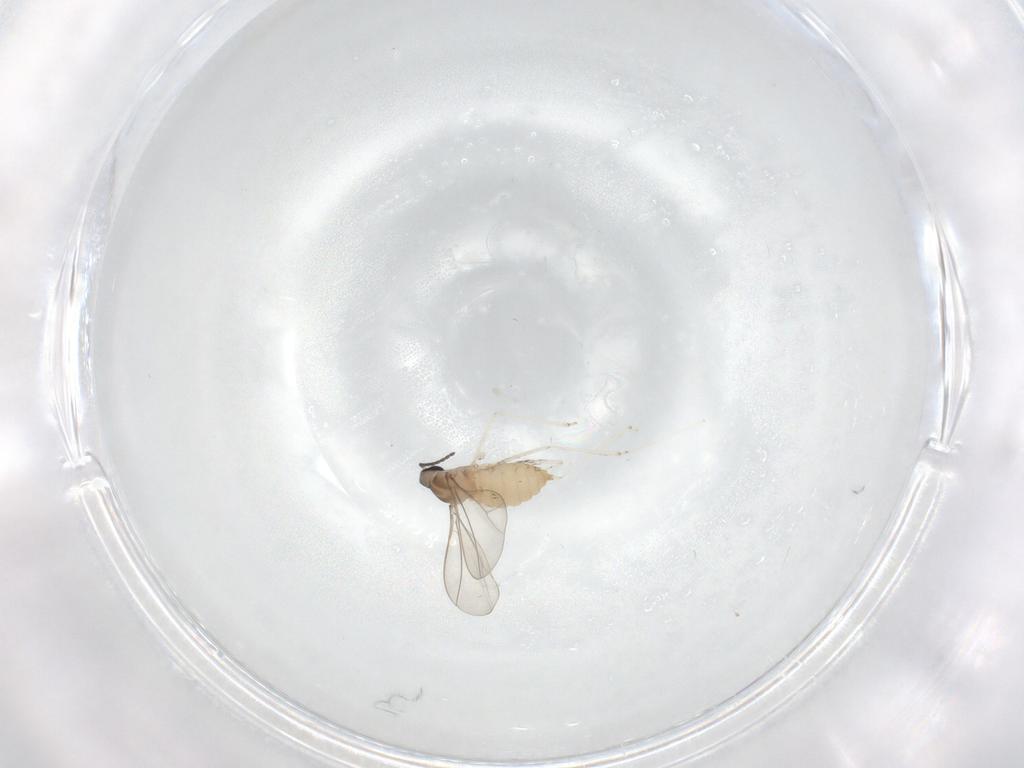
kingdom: Animalia
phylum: Arthropoda
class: Insecta
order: Diptera
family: Cecidomyiidae
